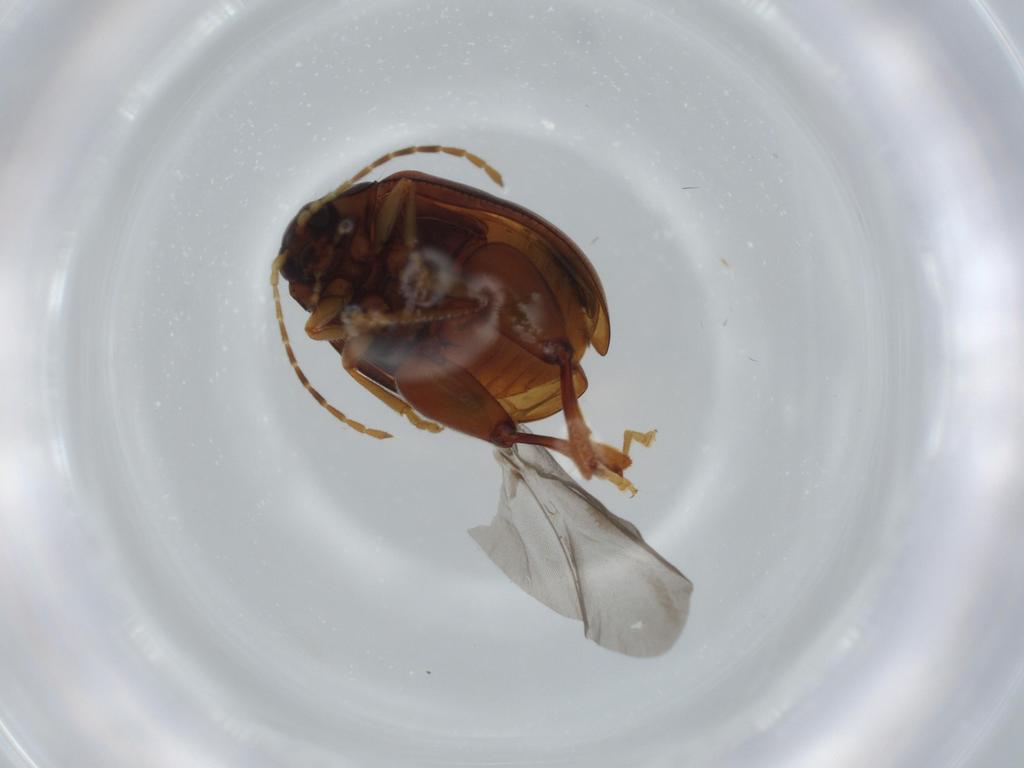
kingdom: Animalia
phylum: Arthropoda
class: Insecta
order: Coleoptera
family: Chrysomelidae
